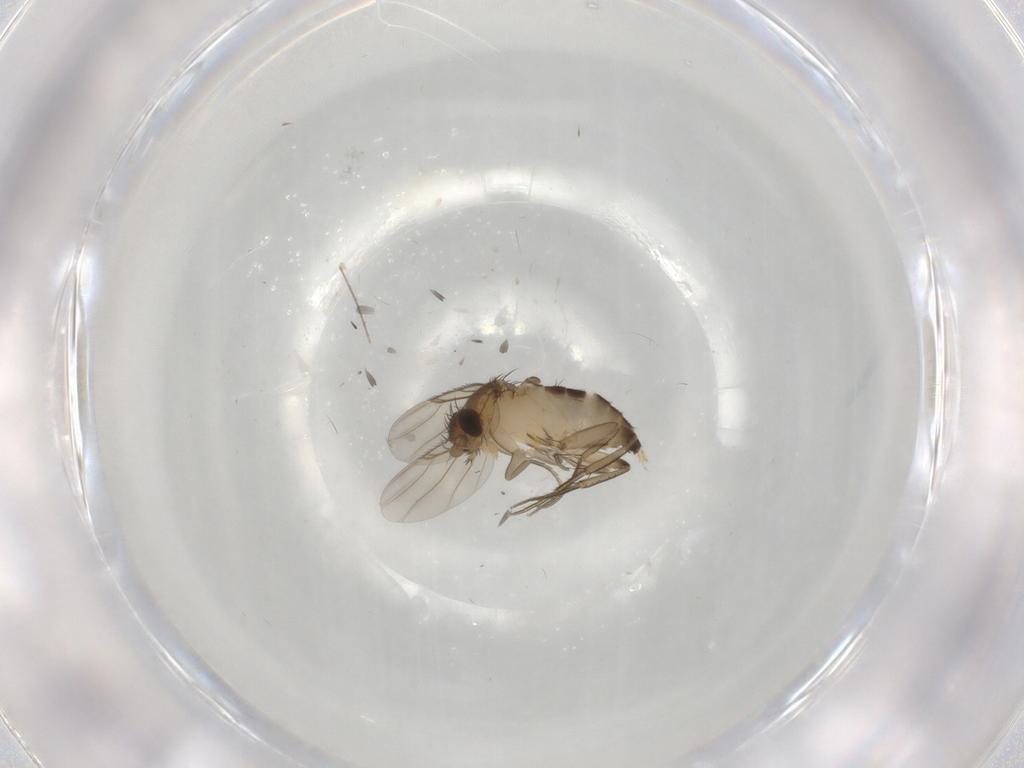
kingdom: Animalia
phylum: Arthropoda
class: Insecta
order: Diptera
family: Chironomidae
